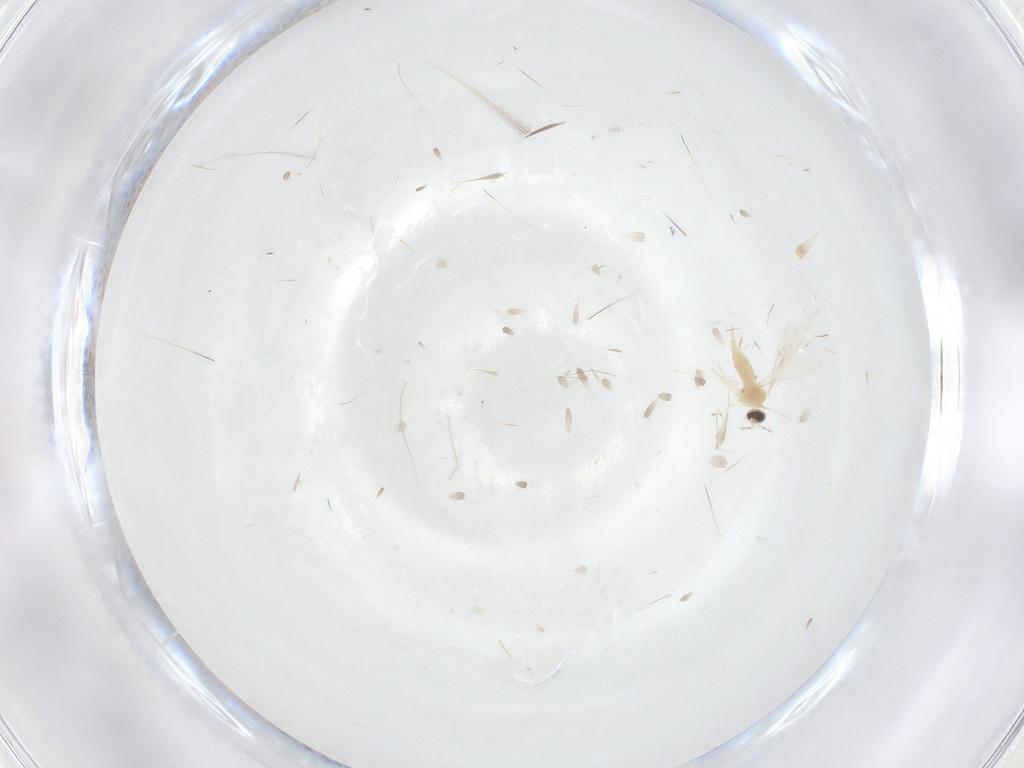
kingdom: Animalia
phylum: Arthropoda
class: Insecta
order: Diptera
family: Cecidomyiidae
